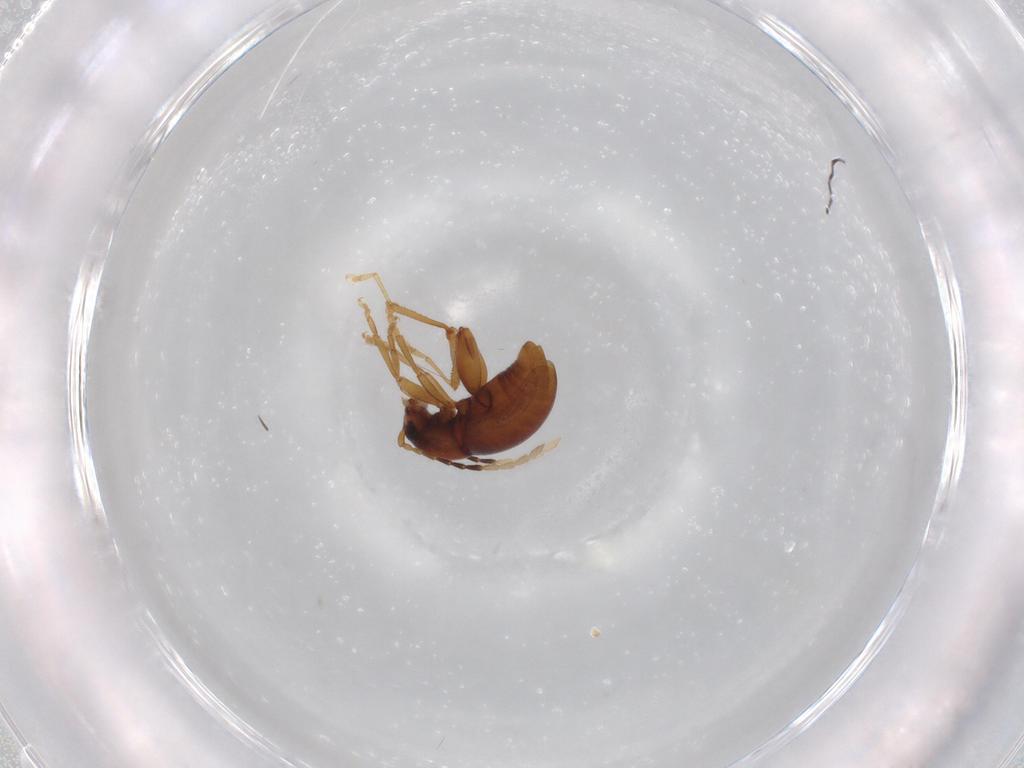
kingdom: Animalia
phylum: Arthropoda
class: Insecta
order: Coleoptera
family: Chrysomelidae
